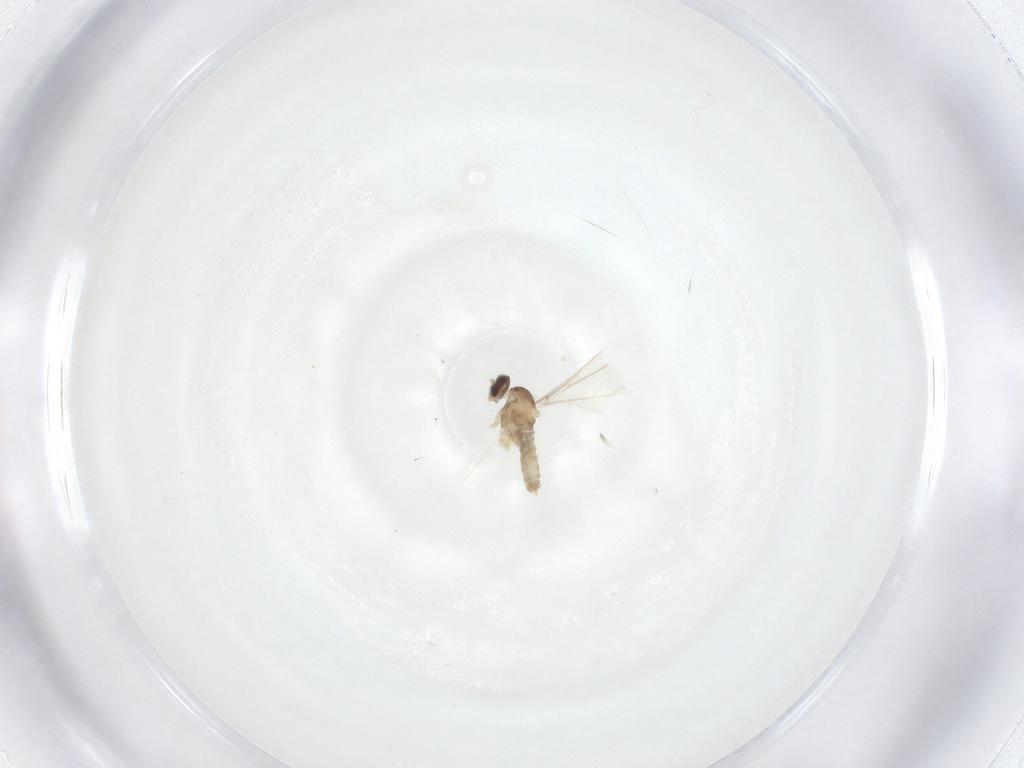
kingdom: Animalia
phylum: Arthropoda
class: Insecta
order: Diptera
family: Cecidomyiidae
